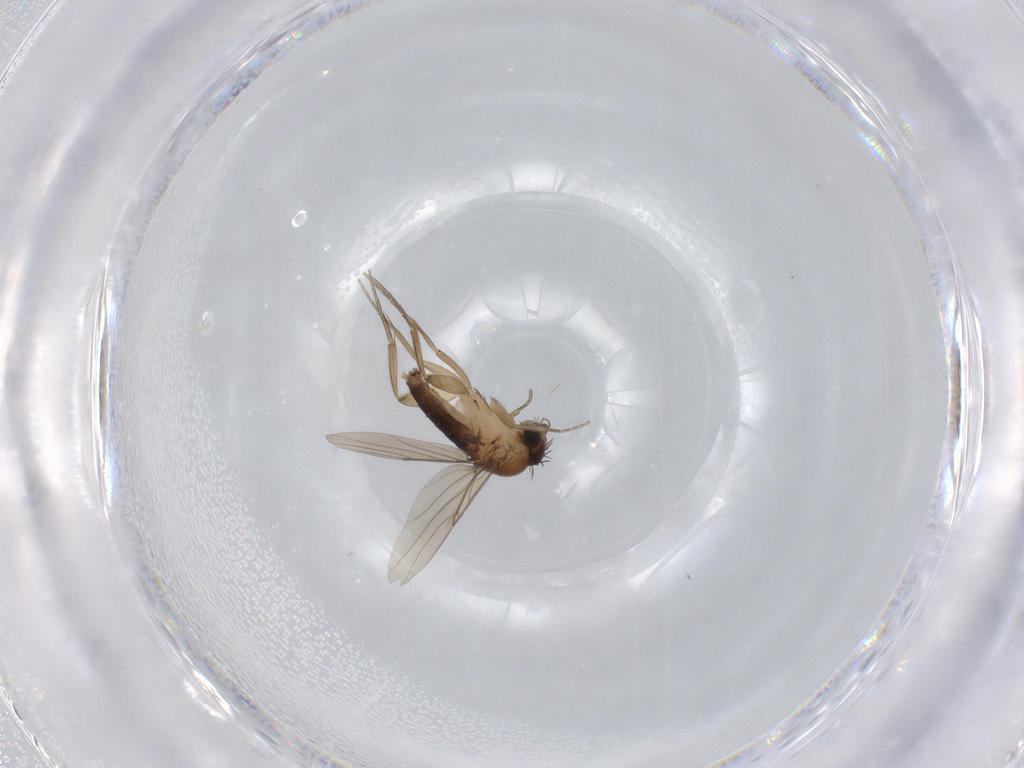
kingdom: Animalia
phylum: Arthropoda
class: Insecta
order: Diptera
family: Phoridae
